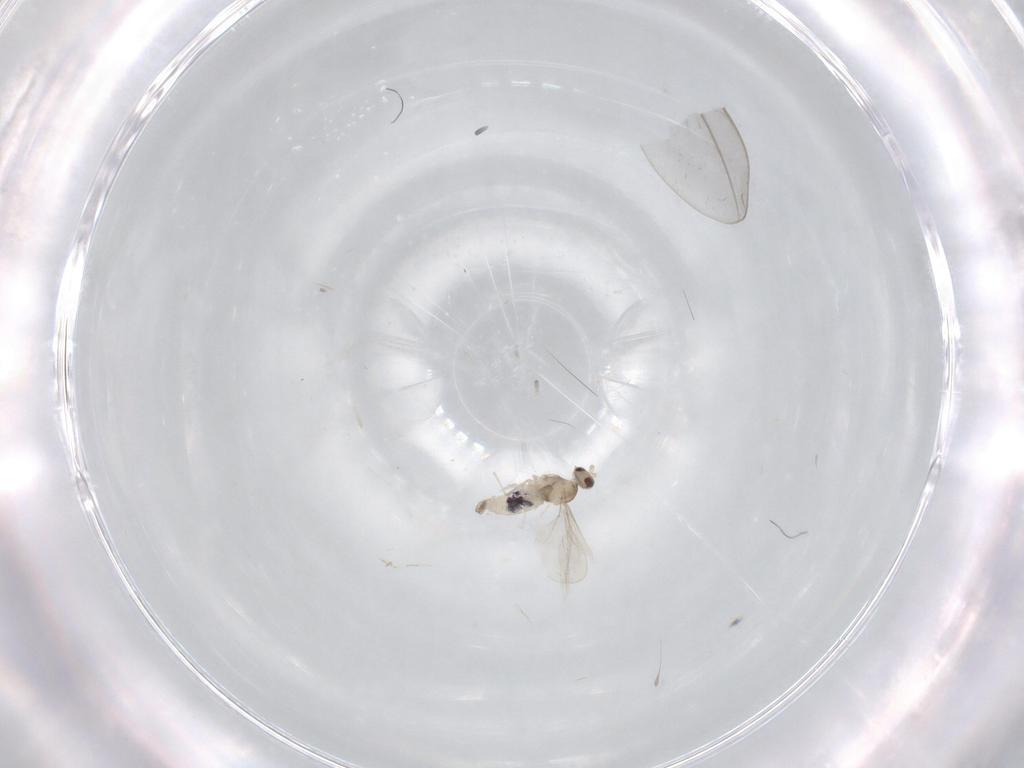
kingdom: Animalia
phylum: Arthropoda
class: Insecta
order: Diptera
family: Cecidomyiidae
